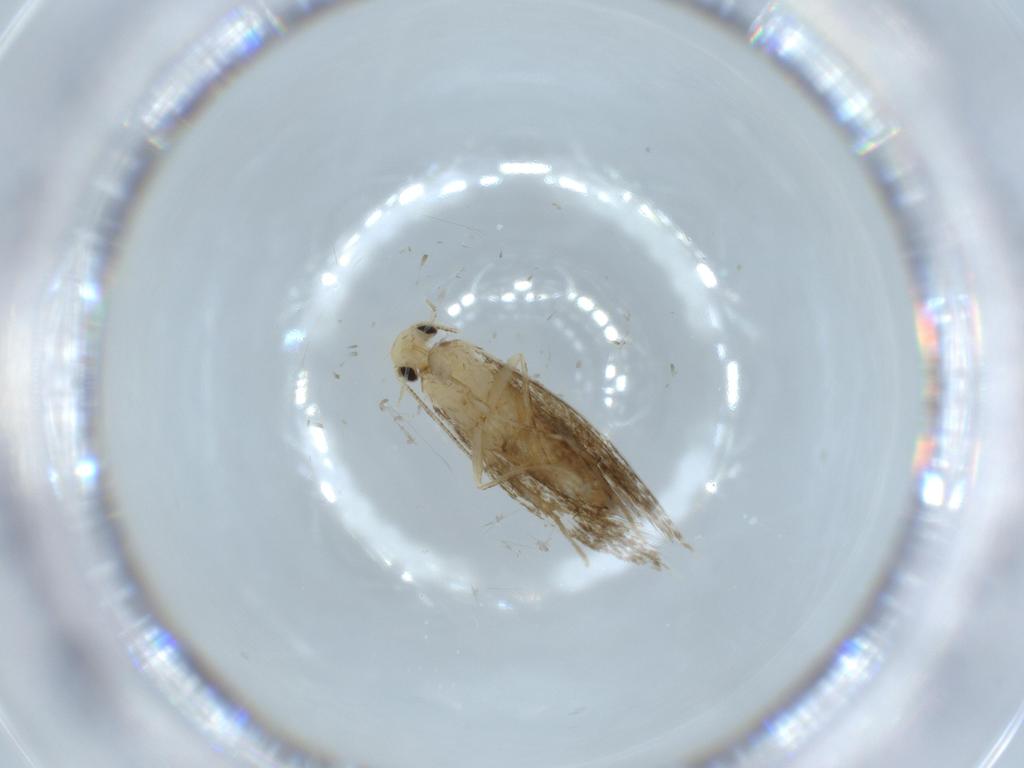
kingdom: Animalia
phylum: Arthropoda
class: Insecta
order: Lepidoptera
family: Tineidae
